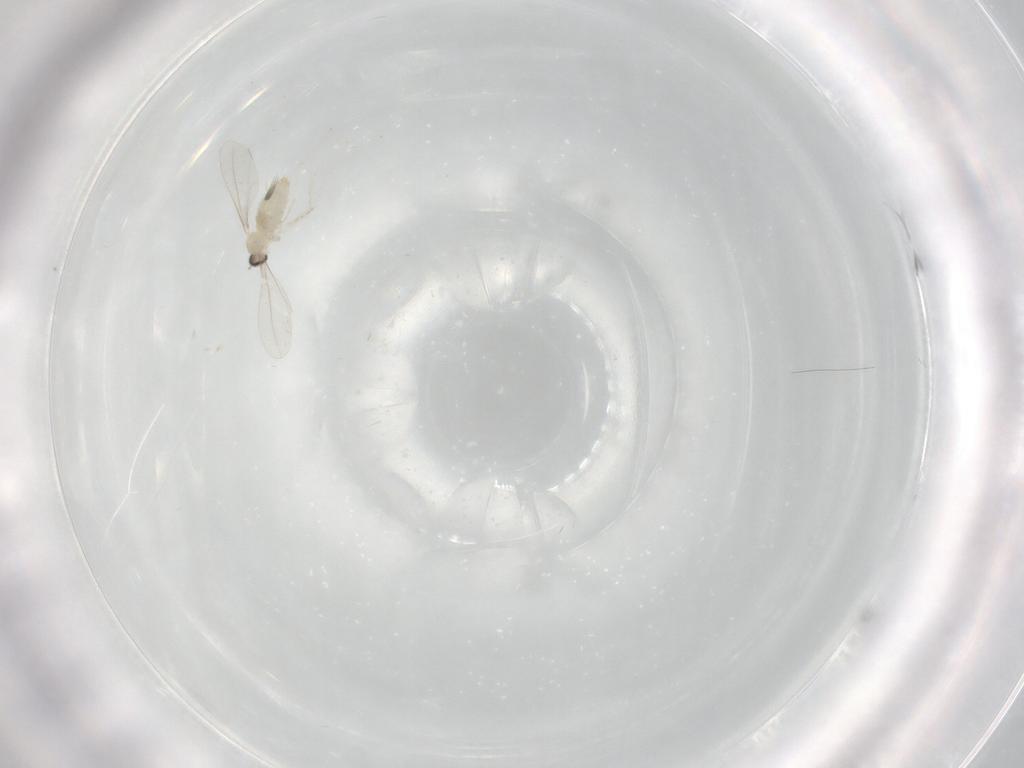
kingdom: Animalia
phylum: Arthropoda
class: Insecta
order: Diptera
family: Cecidomyiidae
